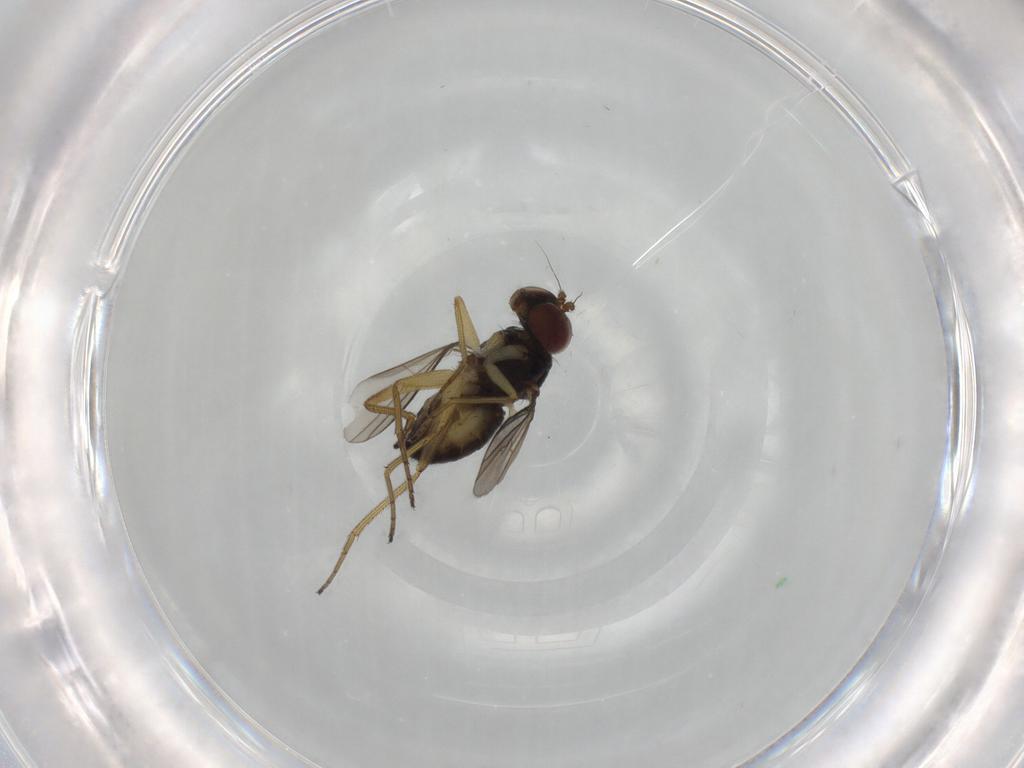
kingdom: Animalia
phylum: Arthropoda
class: Insecta
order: Diptera
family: Dolichopodidae
